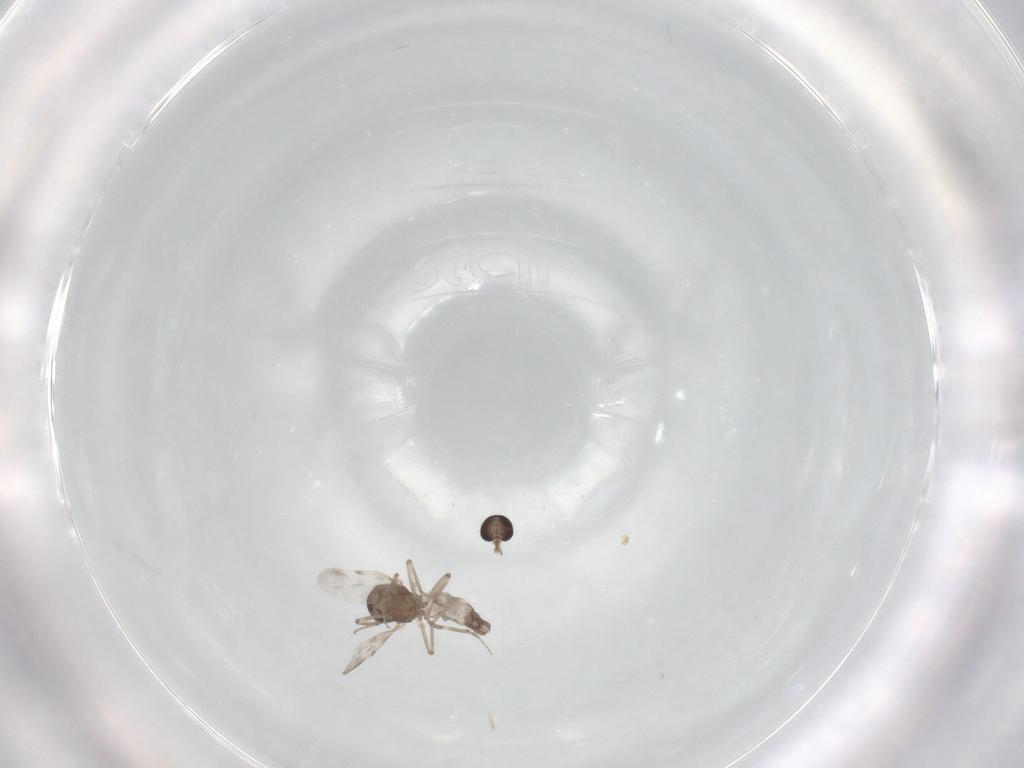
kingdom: Animalia
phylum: Arthropoda
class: Insecta
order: Diptera
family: Ceratopogonidae
